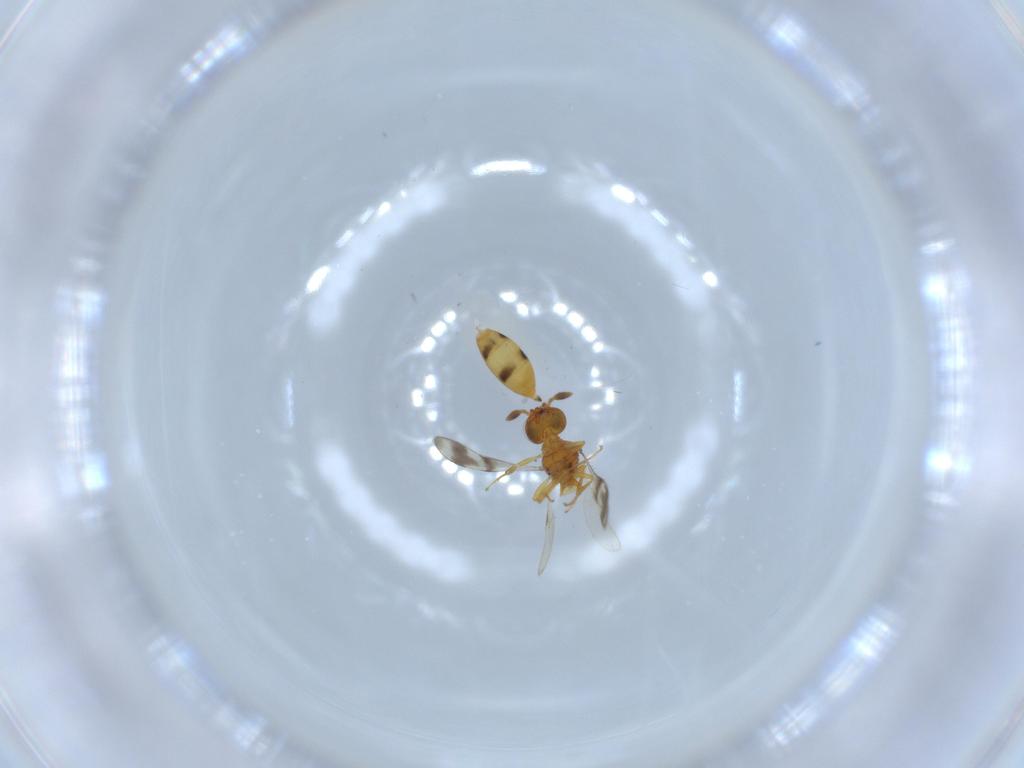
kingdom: Animalia
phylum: Arthropoda
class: Insecta
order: Hymenoptera
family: Scelionidae
